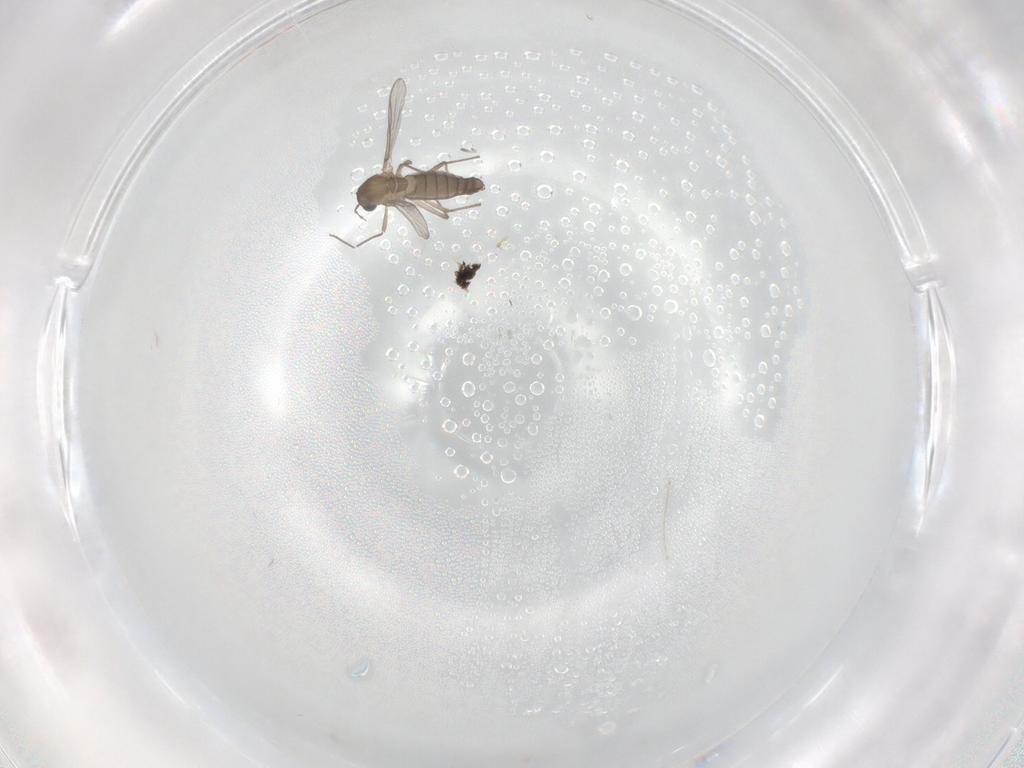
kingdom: Animalia
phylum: Arthropoda
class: Insecta
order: Diptera
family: Chironomidae
